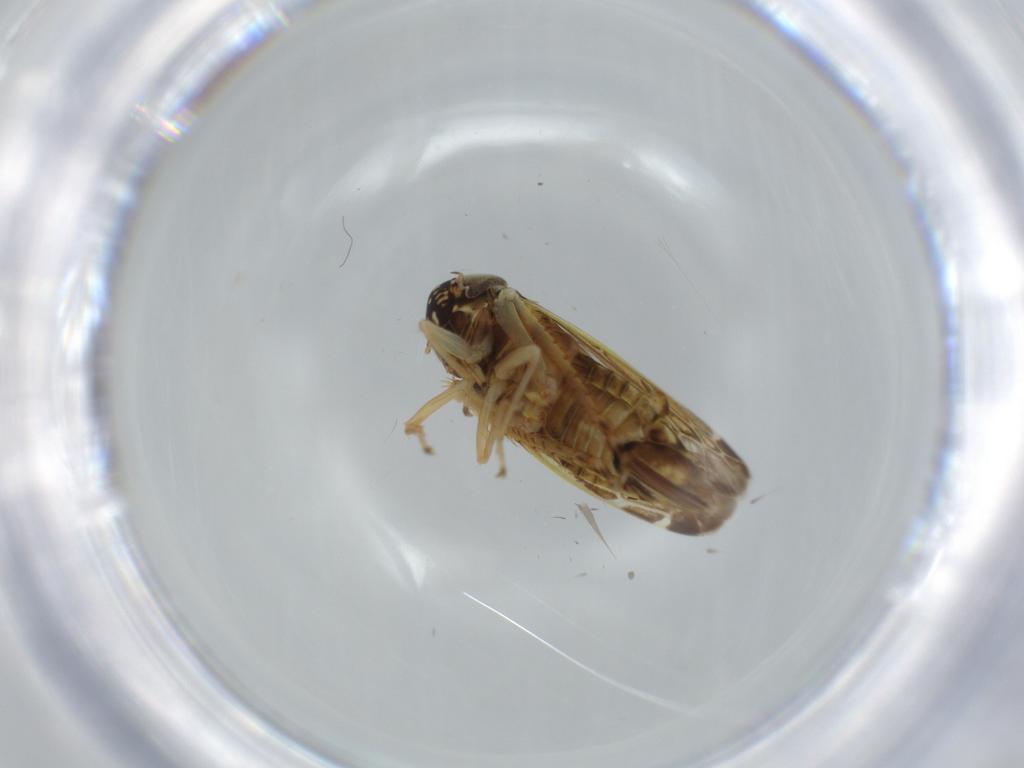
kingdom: Animalia
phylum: Arthropoda
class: Insecta
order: Hemiptera
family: Cicadellidae
